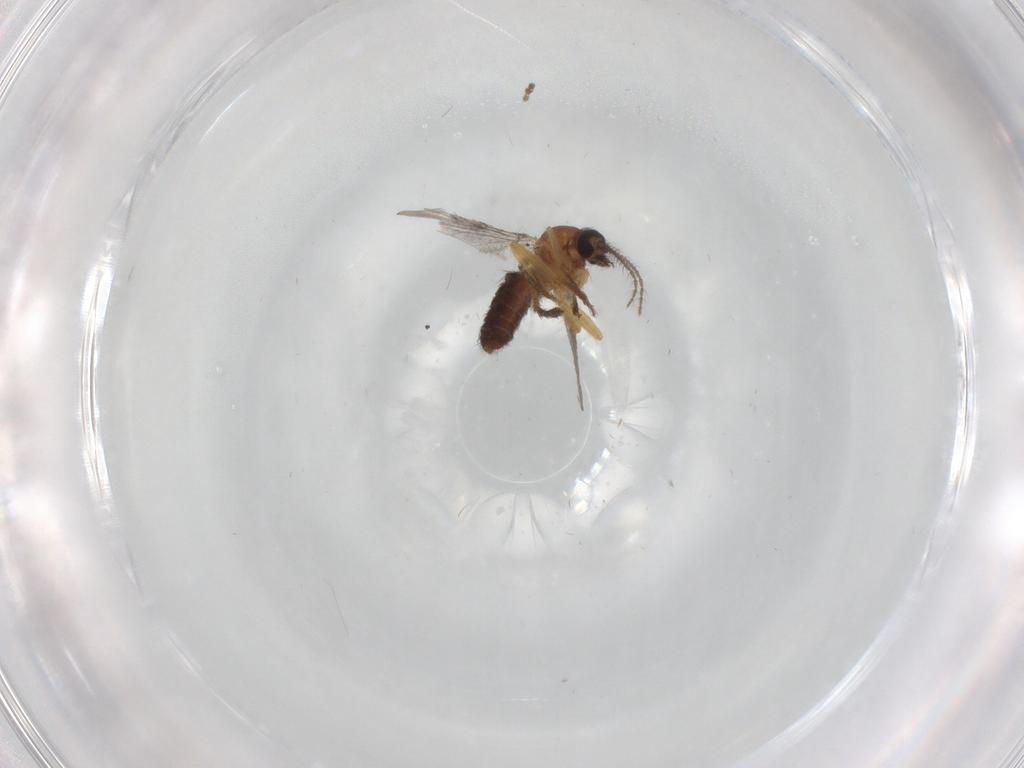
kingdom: Animalia
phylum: Arthropoda
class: Insecta
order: Diptera
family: Ceratopogonidae
